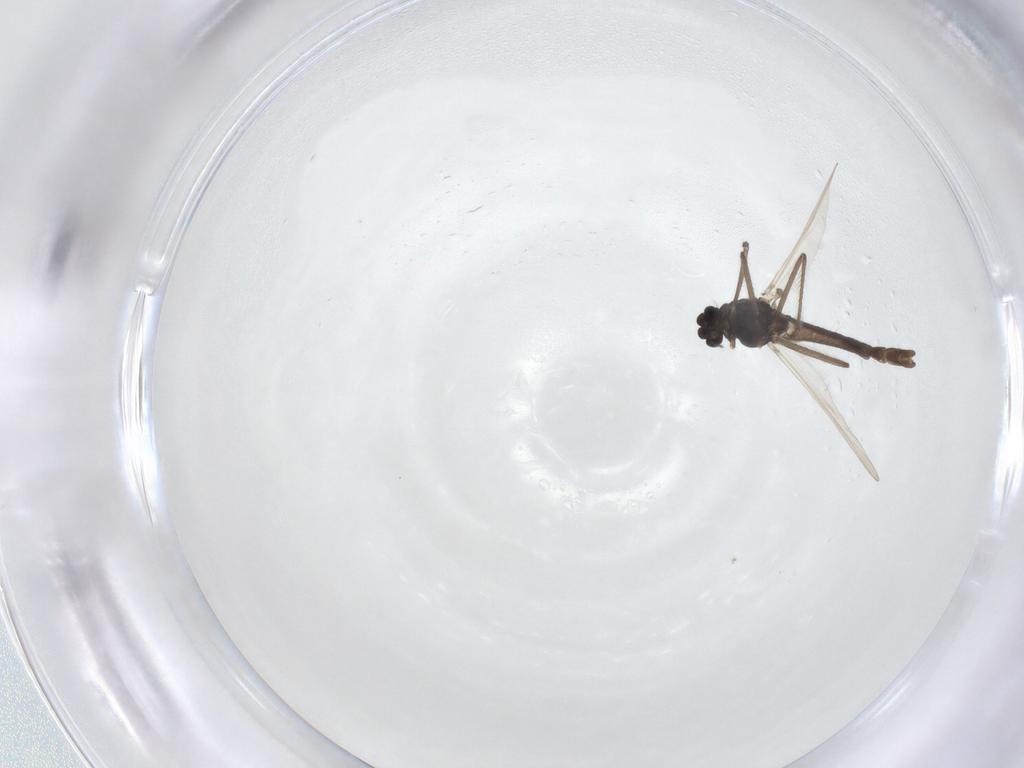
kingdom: Animalia
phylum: Arthropoda
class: Insecta
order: Diptera
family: Chironomidae
